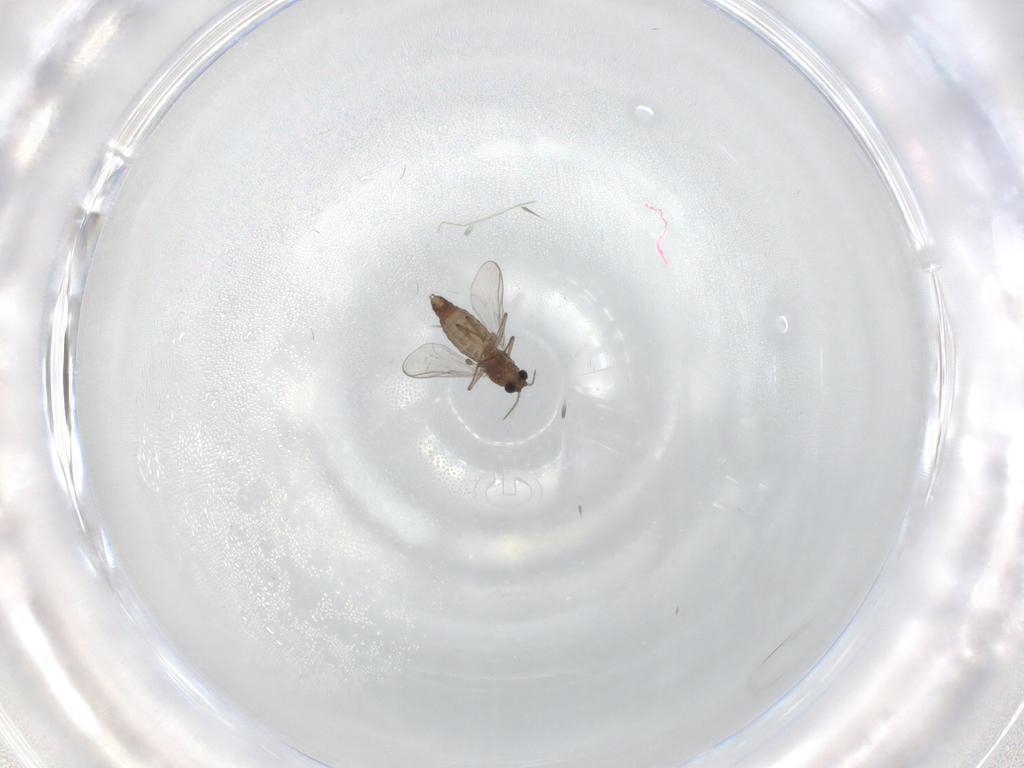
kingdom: Animalia
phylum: Arthropoda
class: Insecta
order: Diptera
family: Chironomidae
